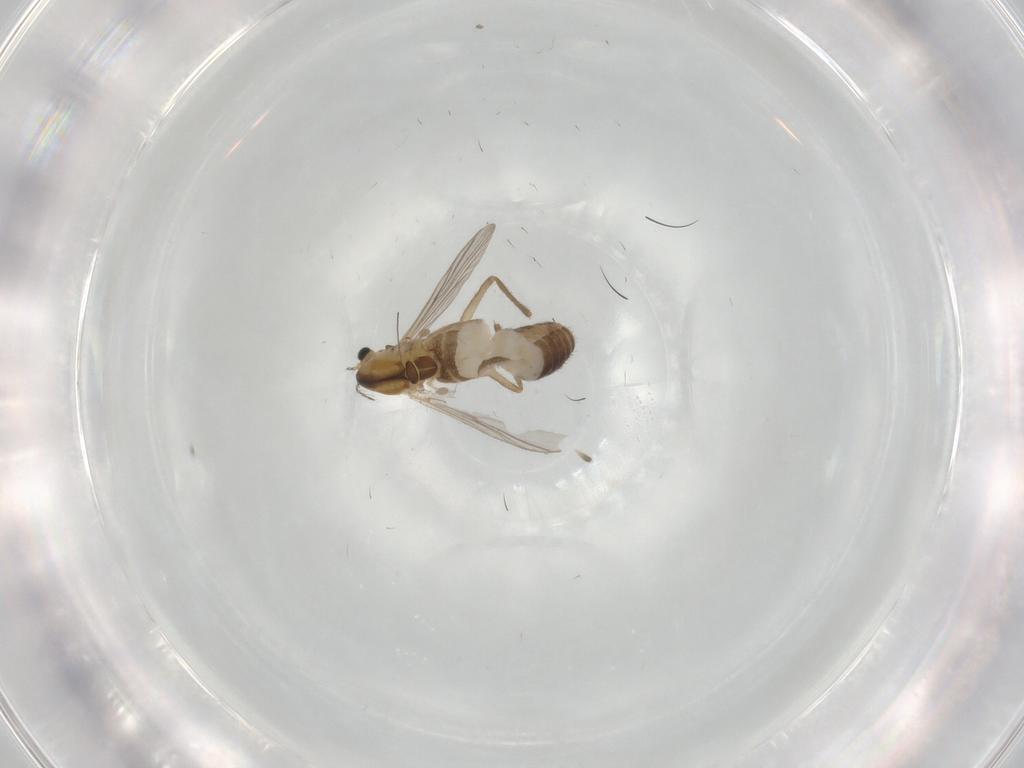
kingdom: Animalia
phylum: Arthropoda
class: Insecta
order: Diptera
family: Chironomidae
